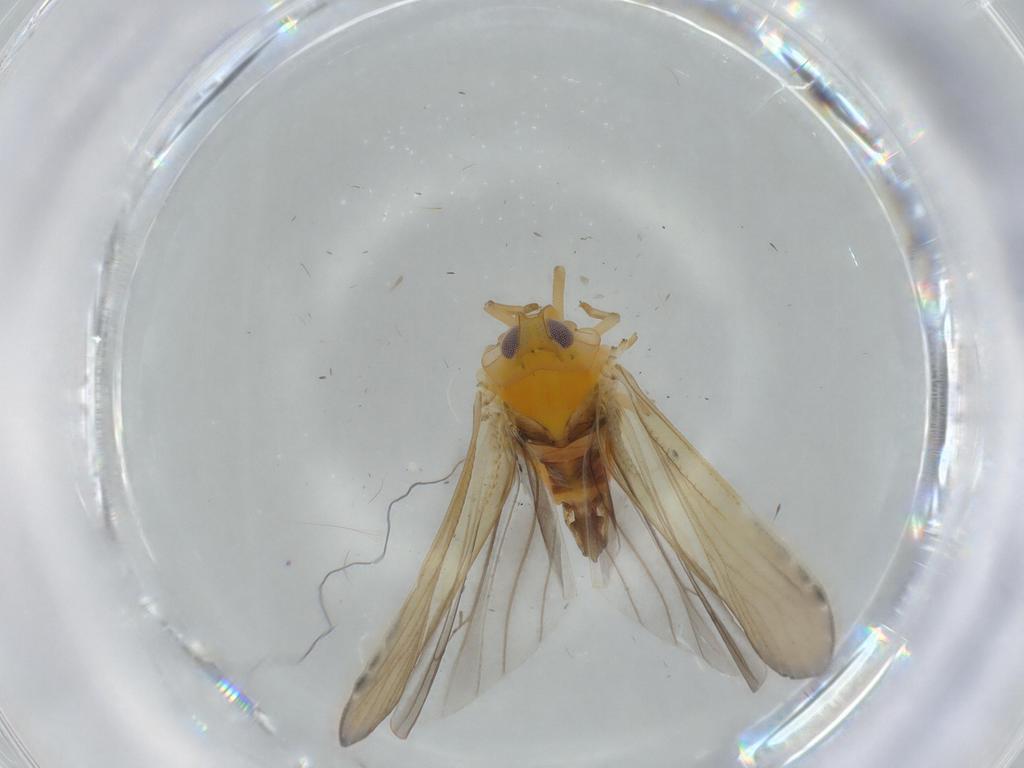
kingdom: Animalia
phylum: Arthropoda
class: Insecta
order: Hemiptera
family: Derbidae
